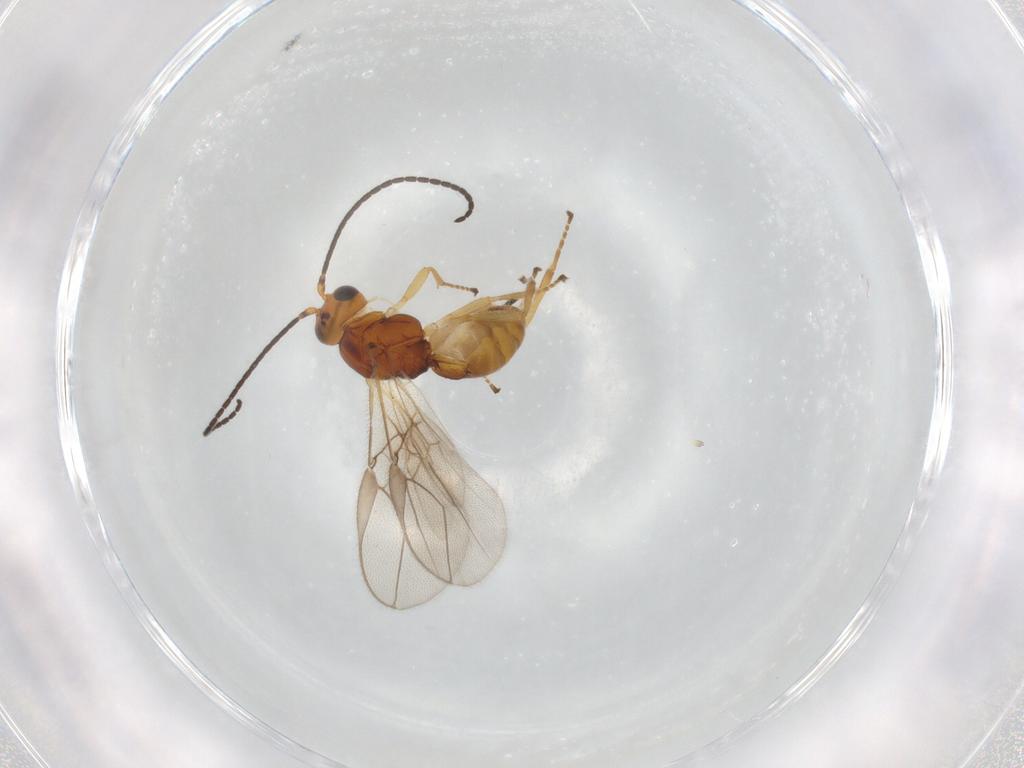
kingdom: Animalia
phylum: Arthropoda
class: Insecta
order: Hymenoptera
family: Braconidae
